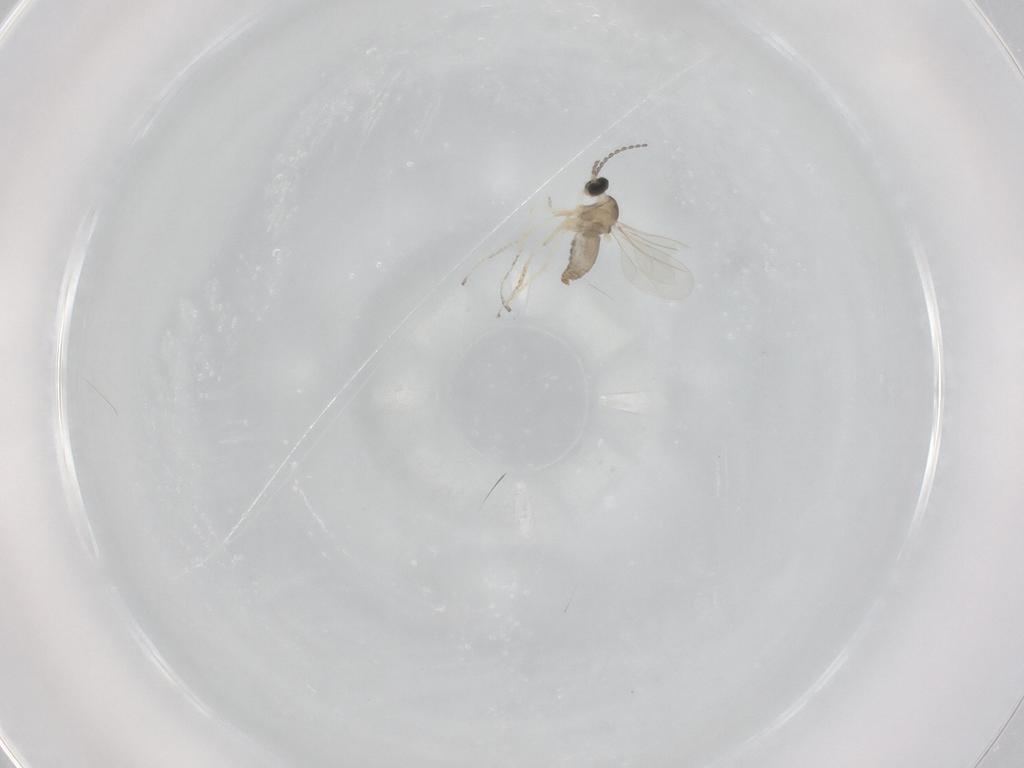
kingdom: Animalia
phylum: Arthropoda
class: Insecta
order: Diptera
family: Cecidomyiidae
